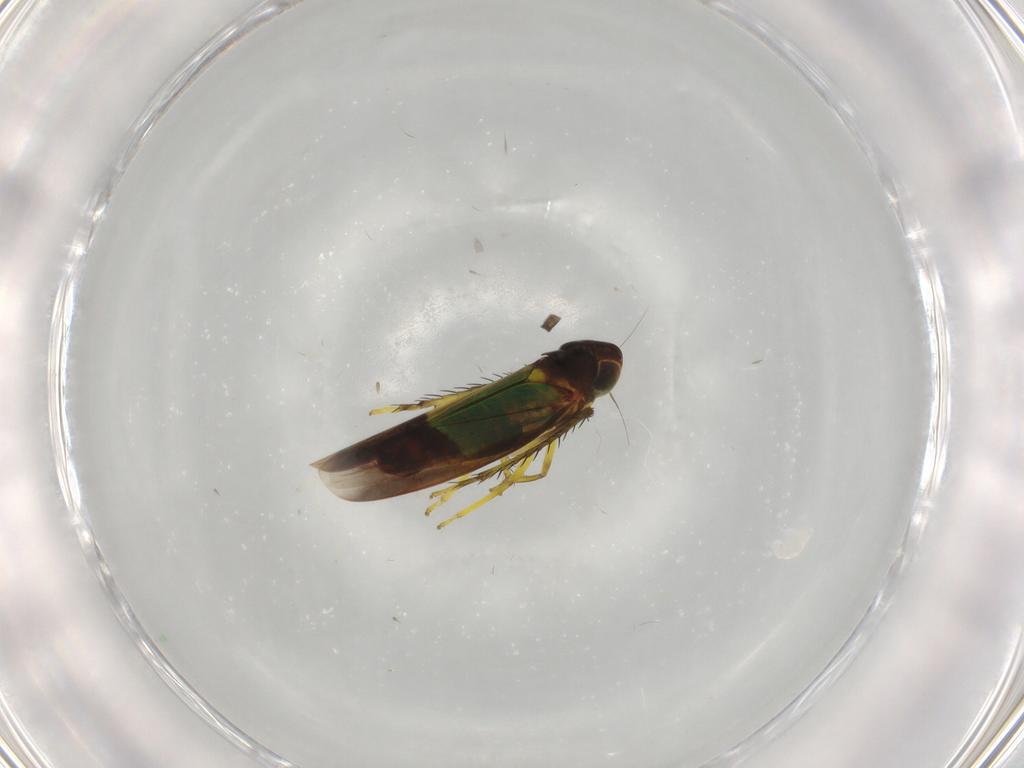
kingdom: Animalia
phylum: Arthropoda
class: Insecta
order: Hemiptera
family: Cicadellidae
